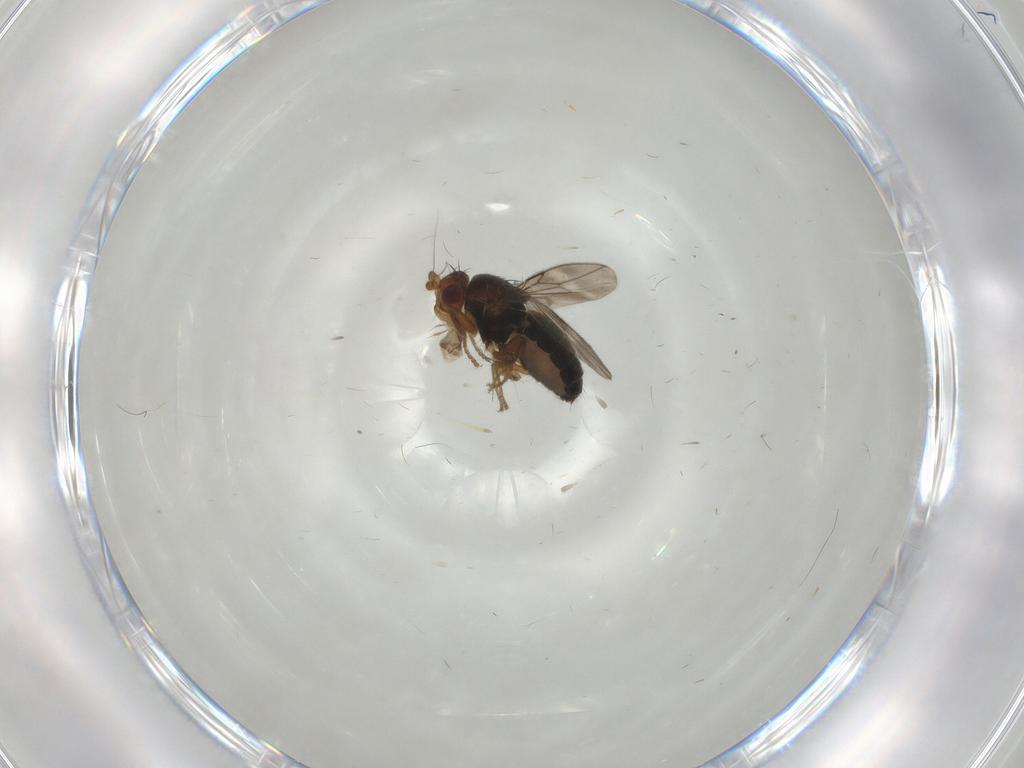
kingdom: Animalia
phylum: Arthropoda
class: Insecta
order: Diptera
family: Sphaeroceridae
